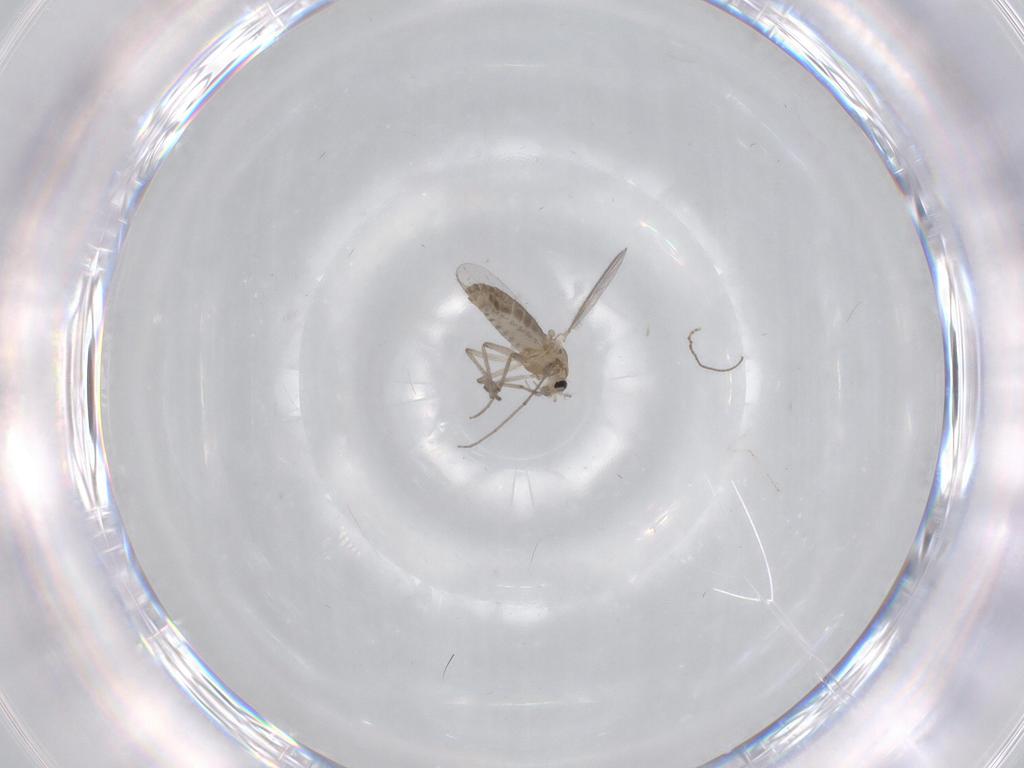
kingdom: Animalia
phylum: Arthropoda
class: Insecta
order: Diptera
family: Chironomidae
